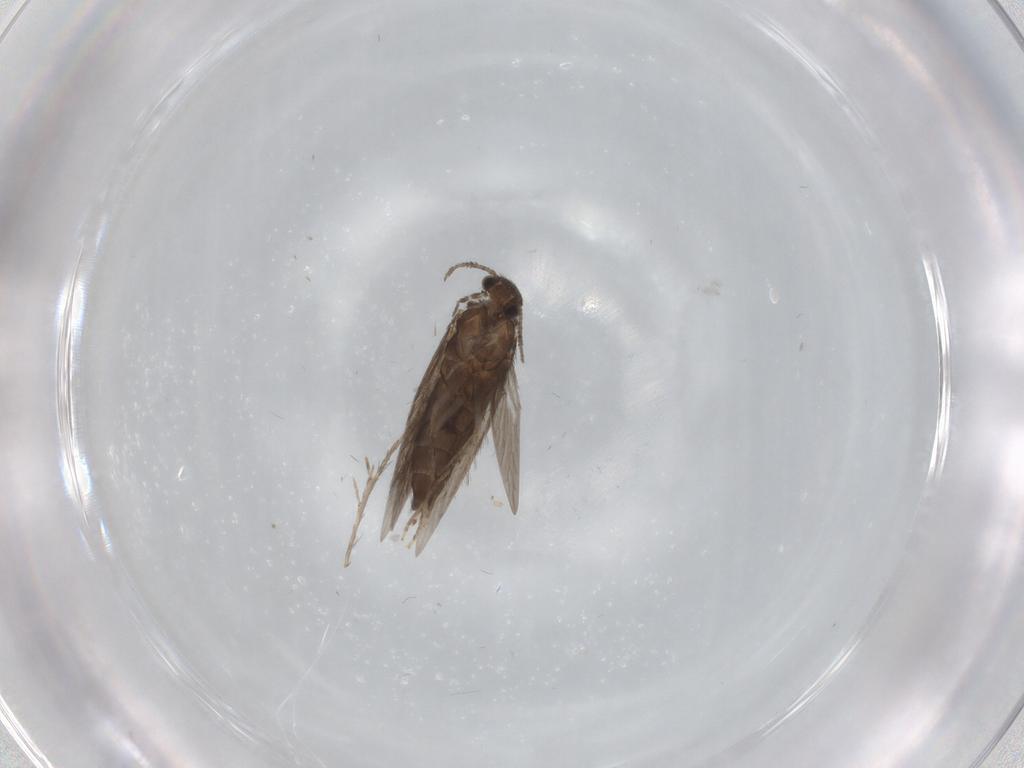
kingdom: Animalia
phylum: Arthropoda
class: Insecta
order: Trichoptera
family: Hydroptilidae
